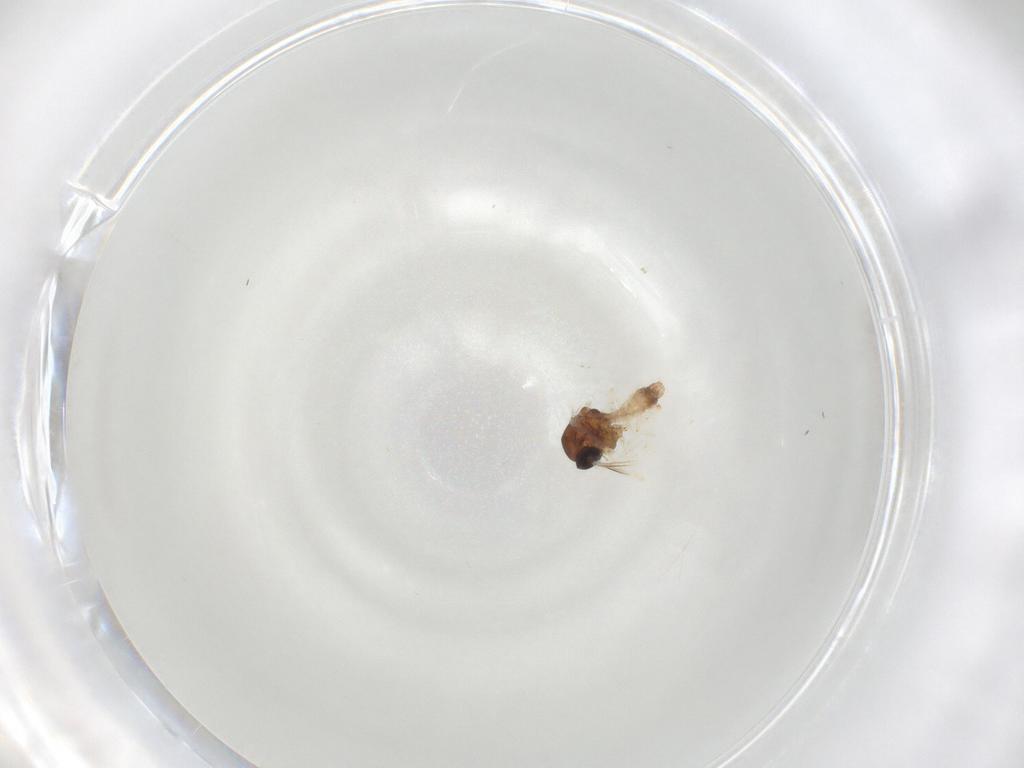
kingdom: Animalia
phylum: Arthropoda
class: Insecta
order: Diptera
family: Sciaridae
